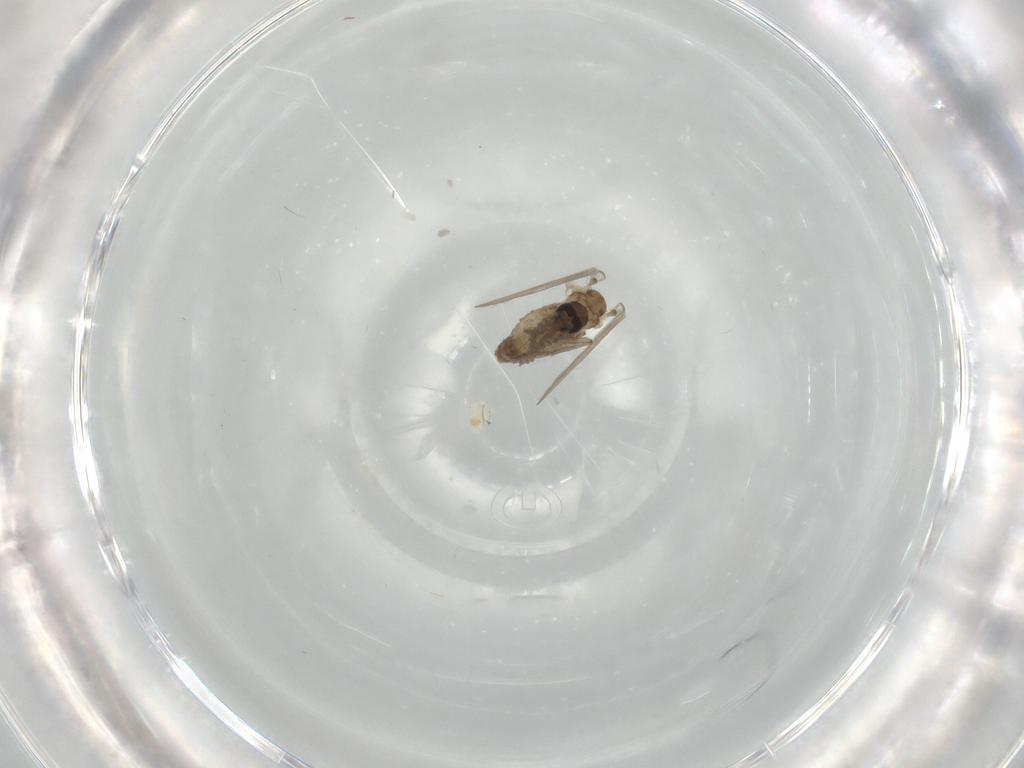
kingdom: Animalia
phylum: Arthropoda
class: Insecta
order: Diptera
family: Psychodidae
